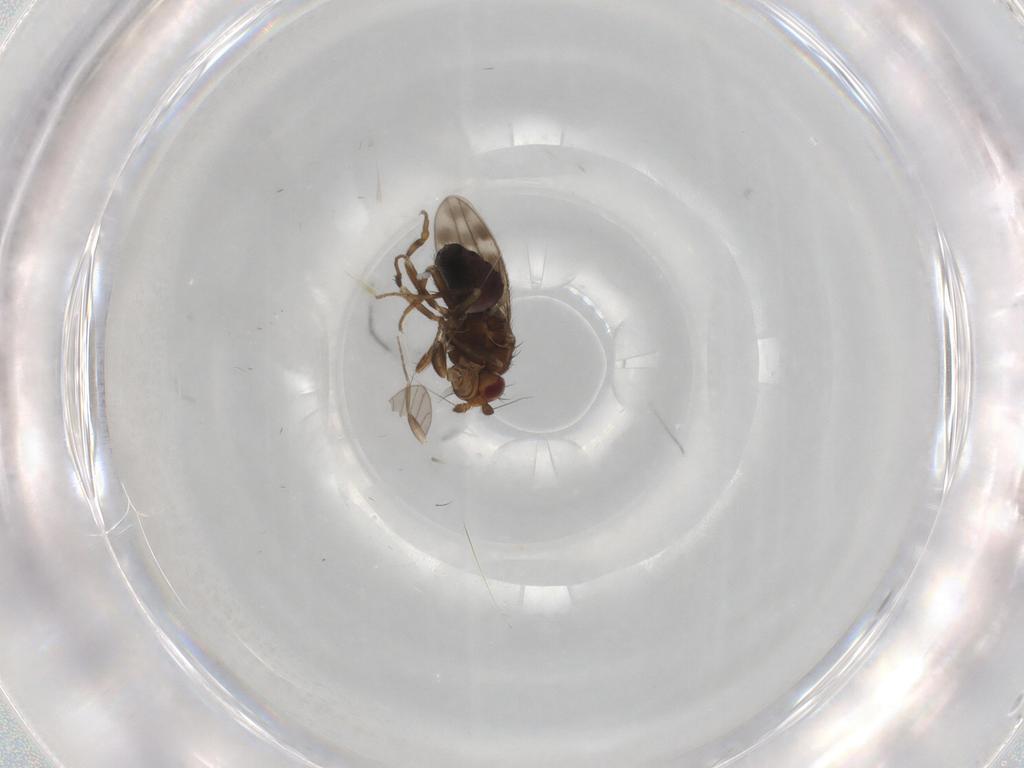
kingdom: Animalia
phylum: Arthropoda
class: Insecta
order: Diptera
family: Sphaeroceridae
